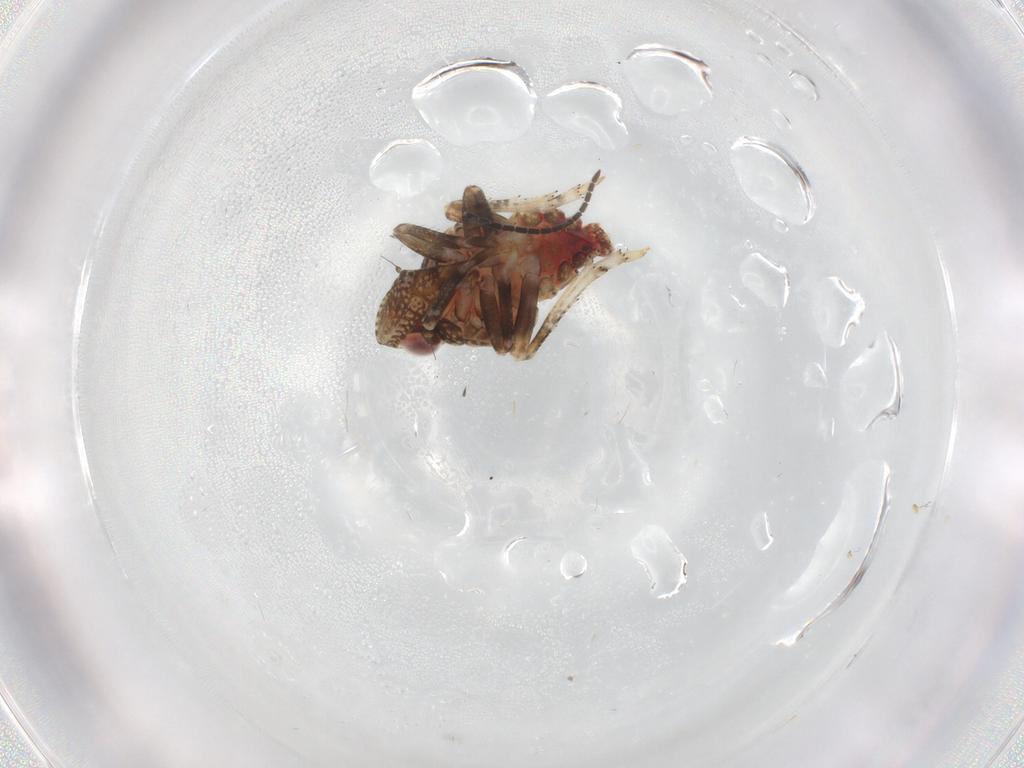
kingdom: Animalia
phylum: Arthropoda
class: Insecta
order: Hemiptera
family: Tropiduchidae
